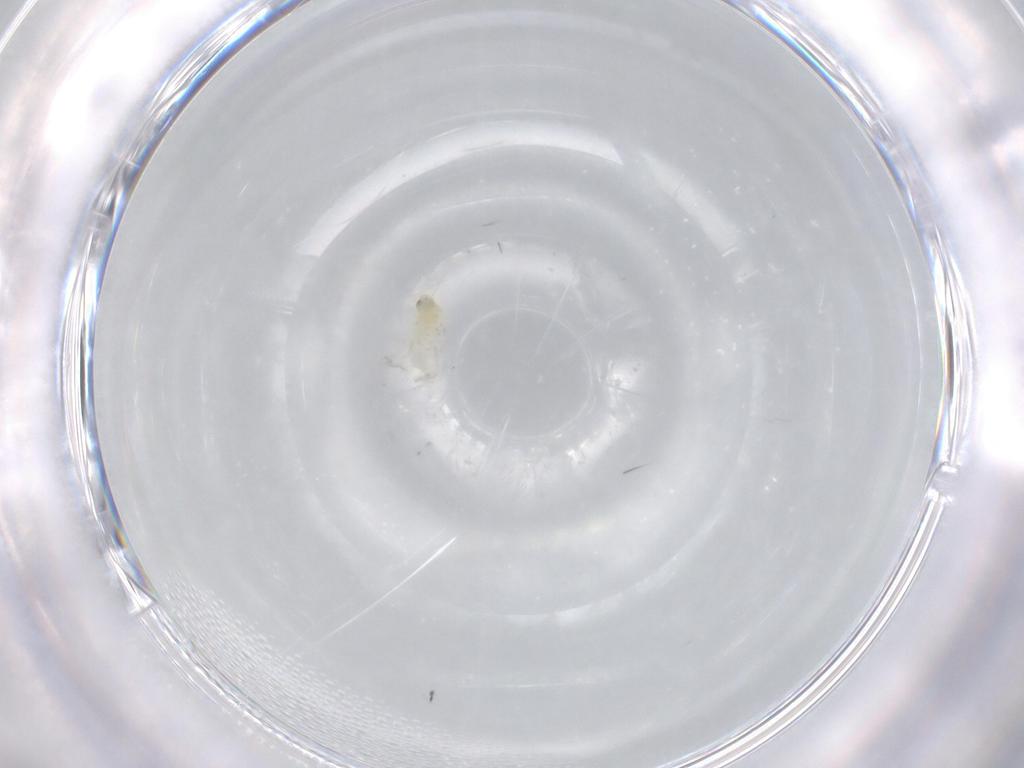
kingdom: Animalia
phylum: Arthropoda
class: Insecta
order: Hemiptera
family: Aleyrodidae
